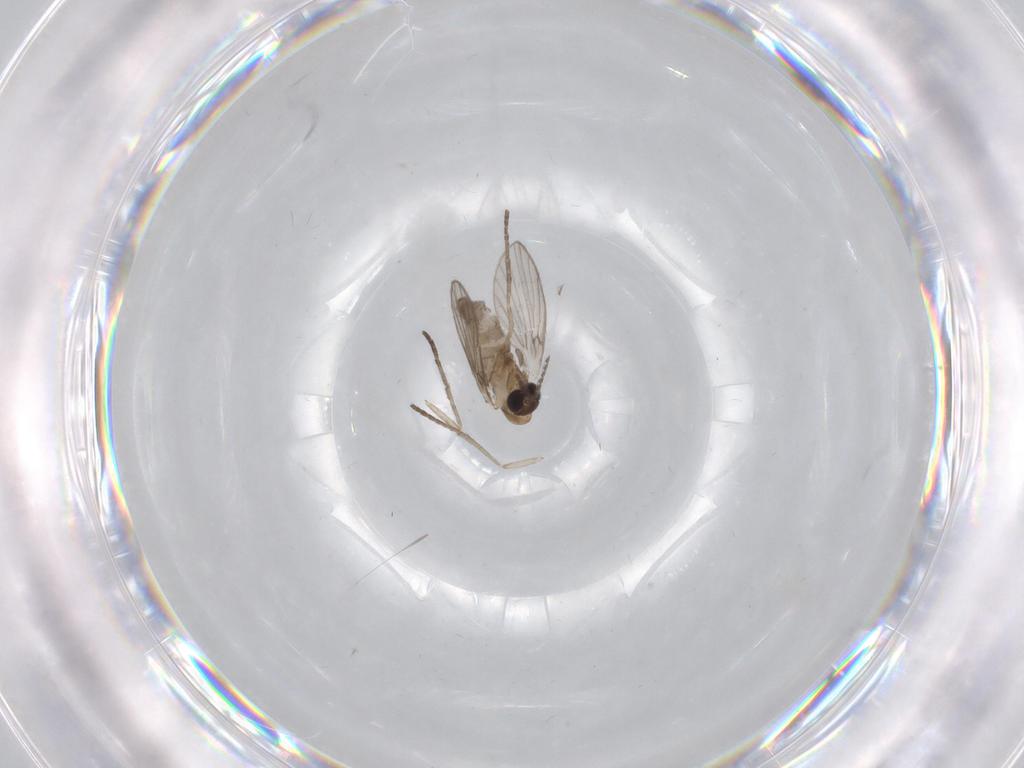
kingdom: Animalia
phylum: Arthropoda
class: Insecta
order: Diptera
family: Psychodidae
